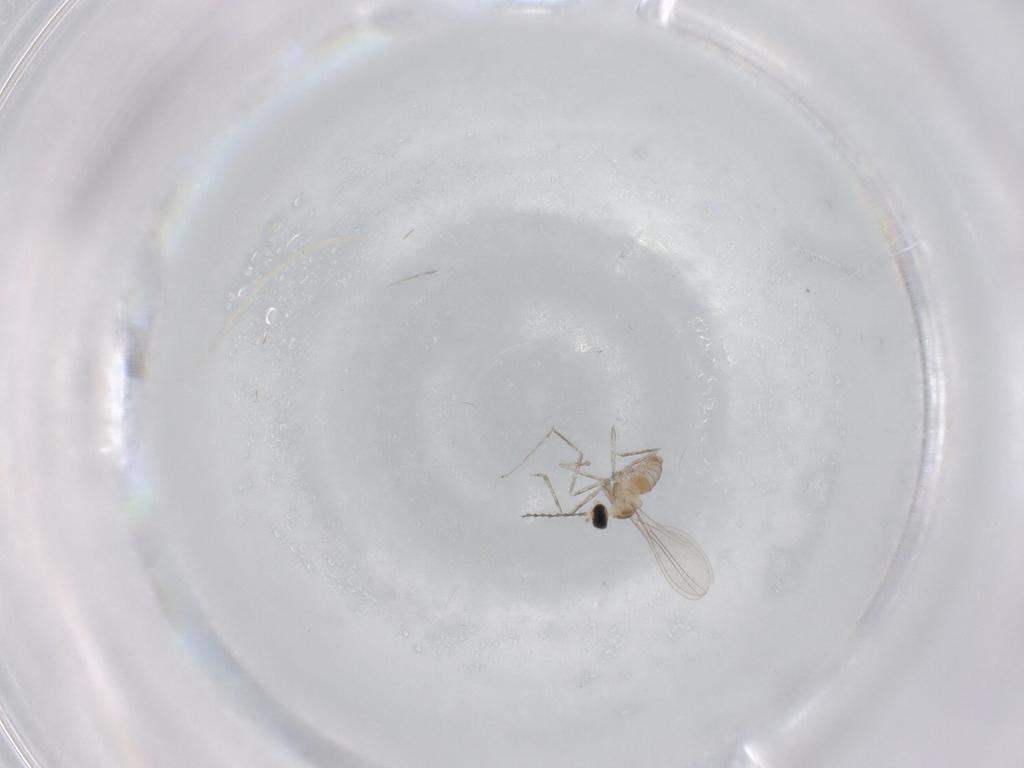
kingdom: Animalia
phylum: Arthropoda
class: Insecta
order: Diptera
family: Cecidomyiidae
